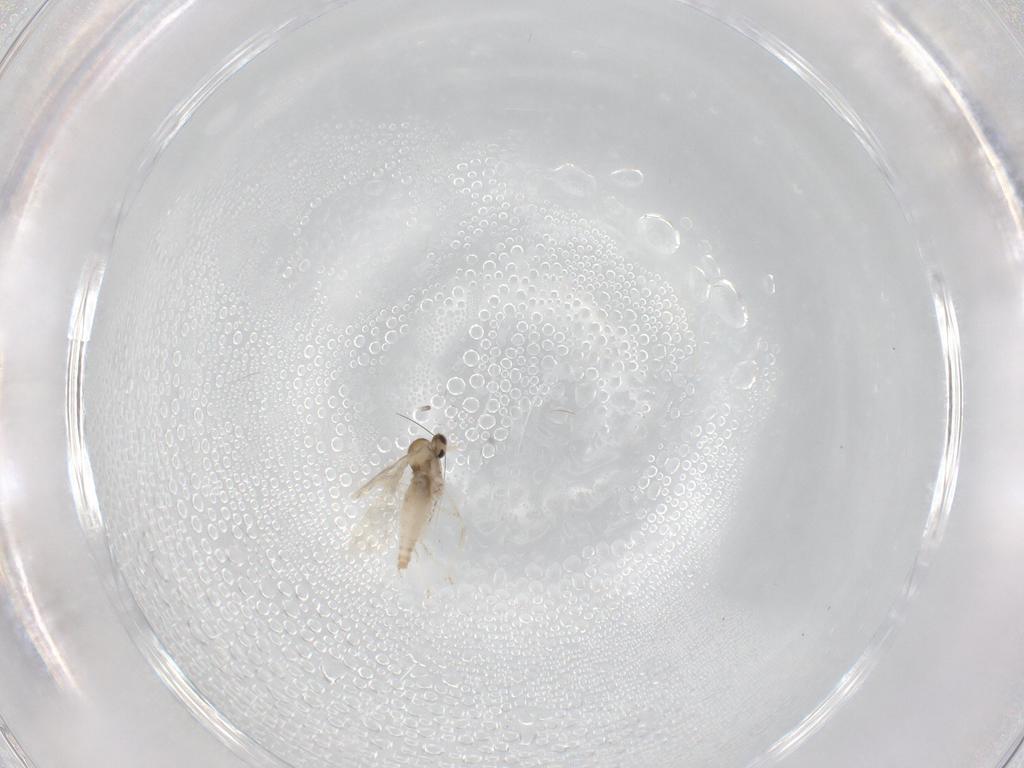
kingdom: Animalia
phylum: Arthropoda
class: Insecta
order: Diptera
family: Cecidomyiidae
